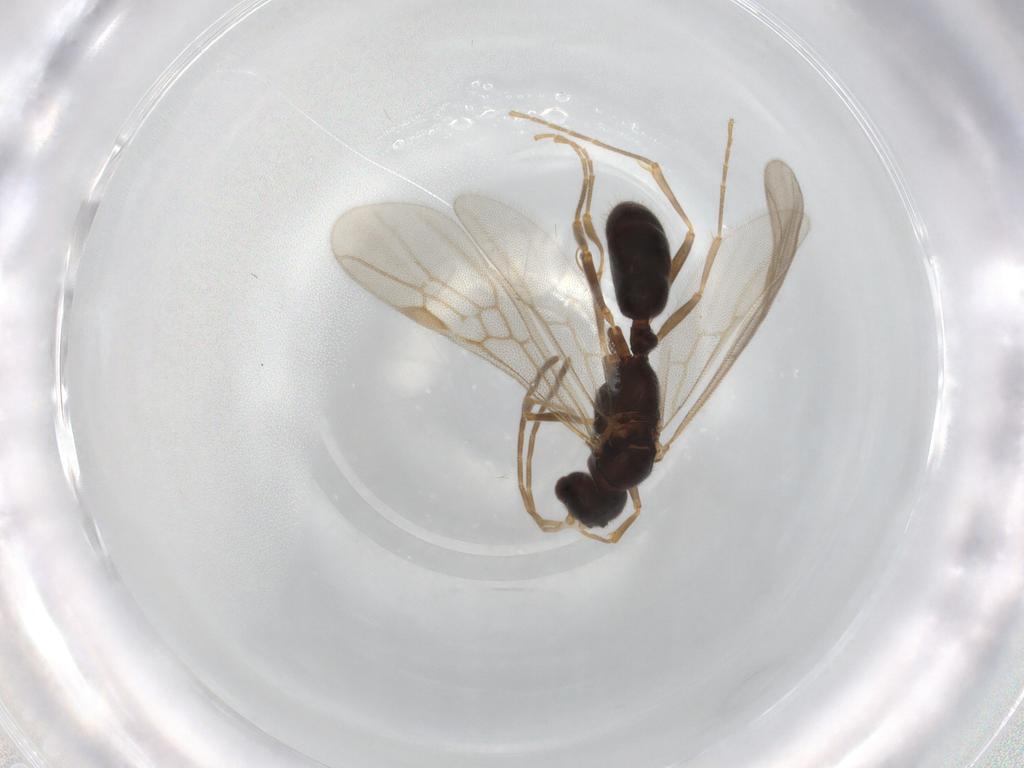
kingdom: Animalia
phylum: Arthropoda
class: Insecta
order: Hymenoptera
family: Formicidae
